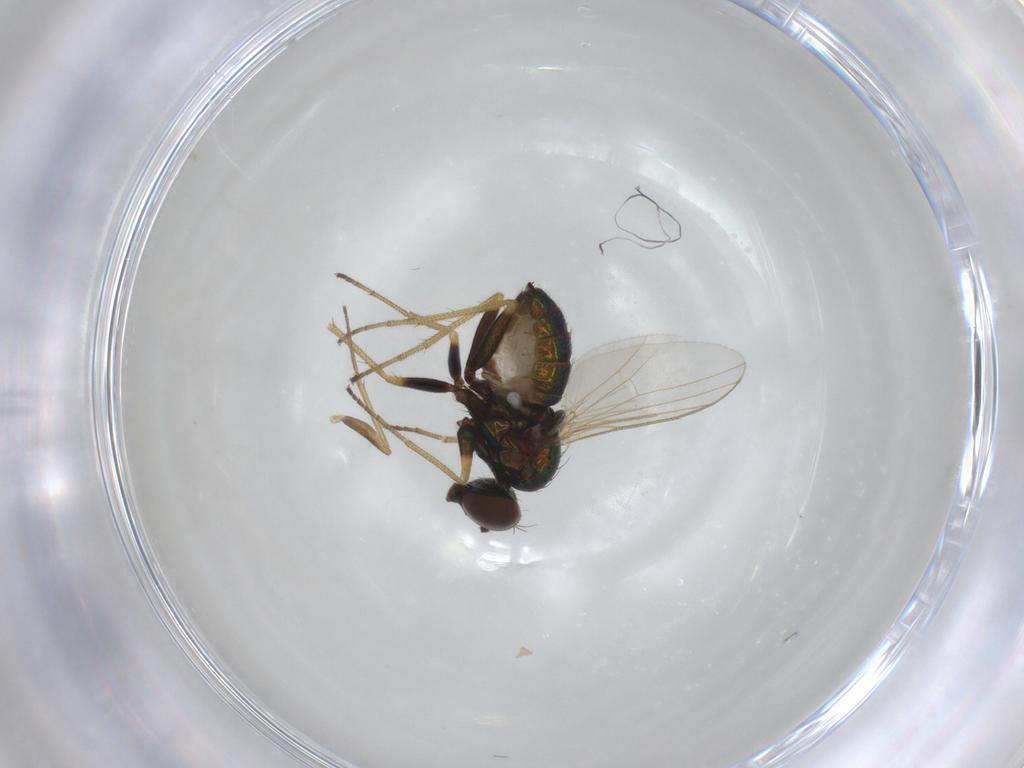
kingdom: Animalia
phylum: Arthropoda
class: Insecta
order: Diptera
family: Dolichopodidae
